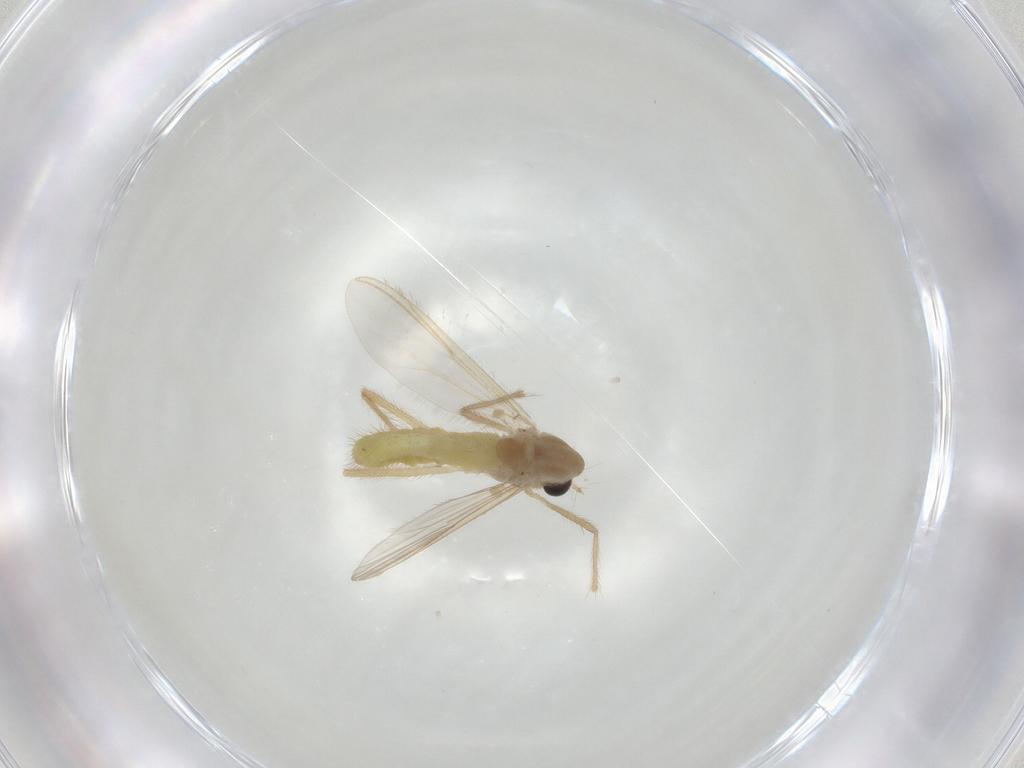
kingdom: Animalia
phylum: Arthropoda
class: Insecta
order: Diptera
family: Chironomidae
